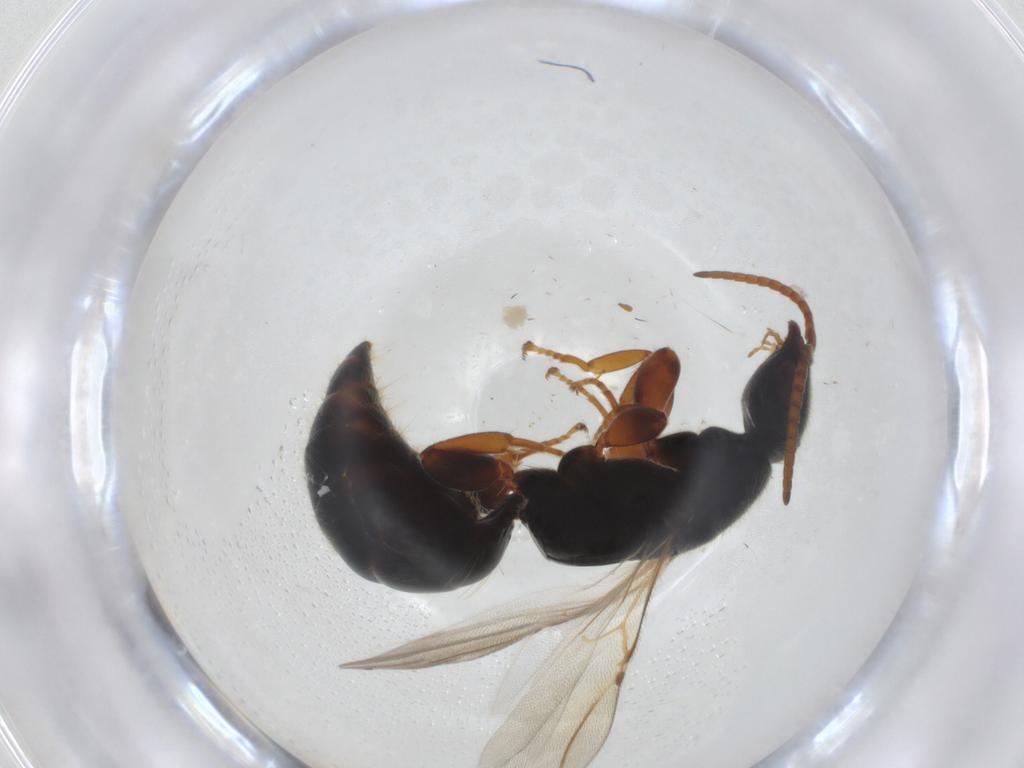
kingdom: Animalia
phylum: Arthropoda
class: Insecta
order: Hymenoptera
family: Bethylidae
